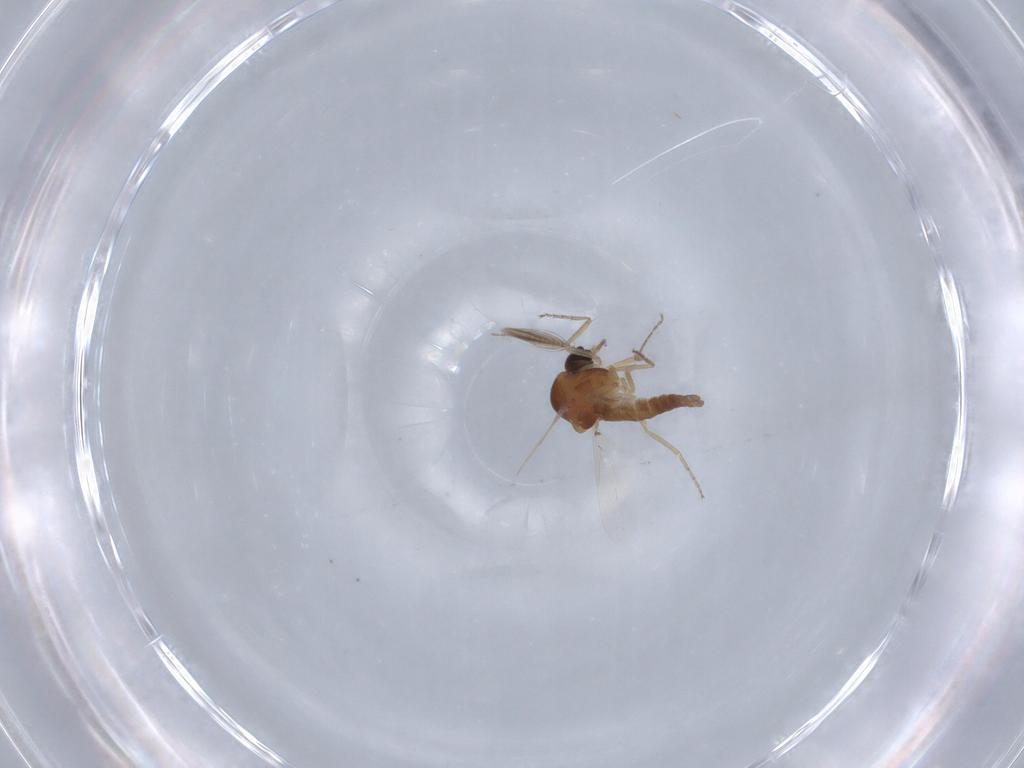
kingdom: Animalia
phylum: Arthropoda
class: Insecta
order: Diptera
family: Ceratopogonidae
